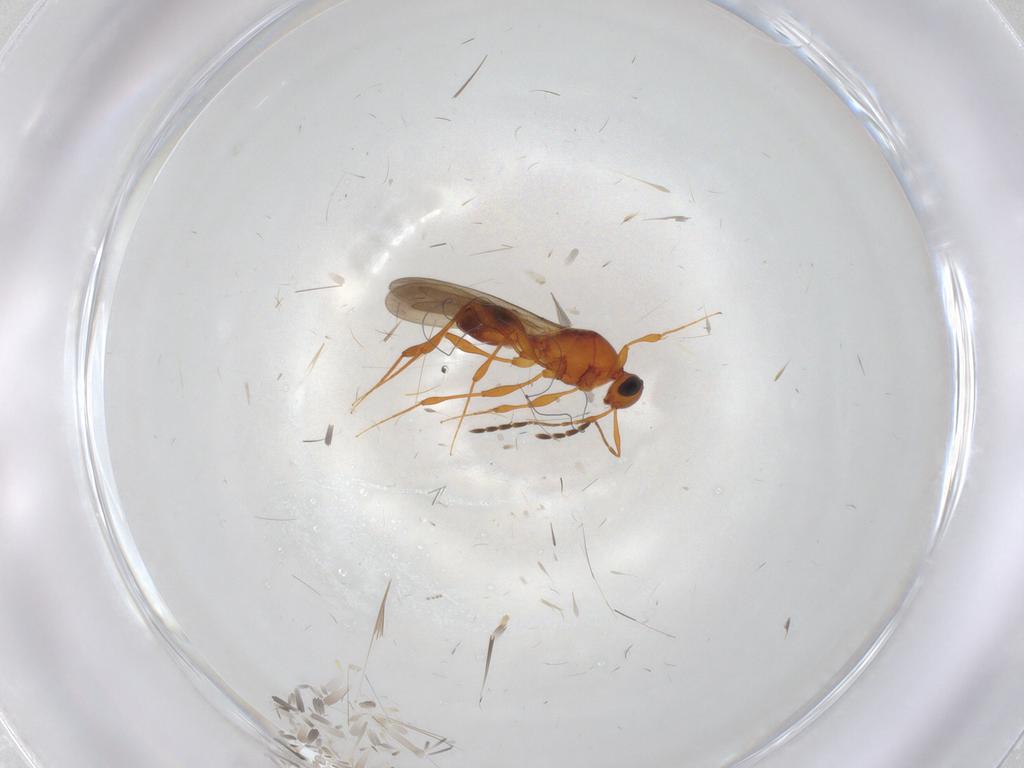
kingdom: Animalia
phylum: Arthropoda
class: Insecta
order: Hymenoptera
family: Platygastridae
